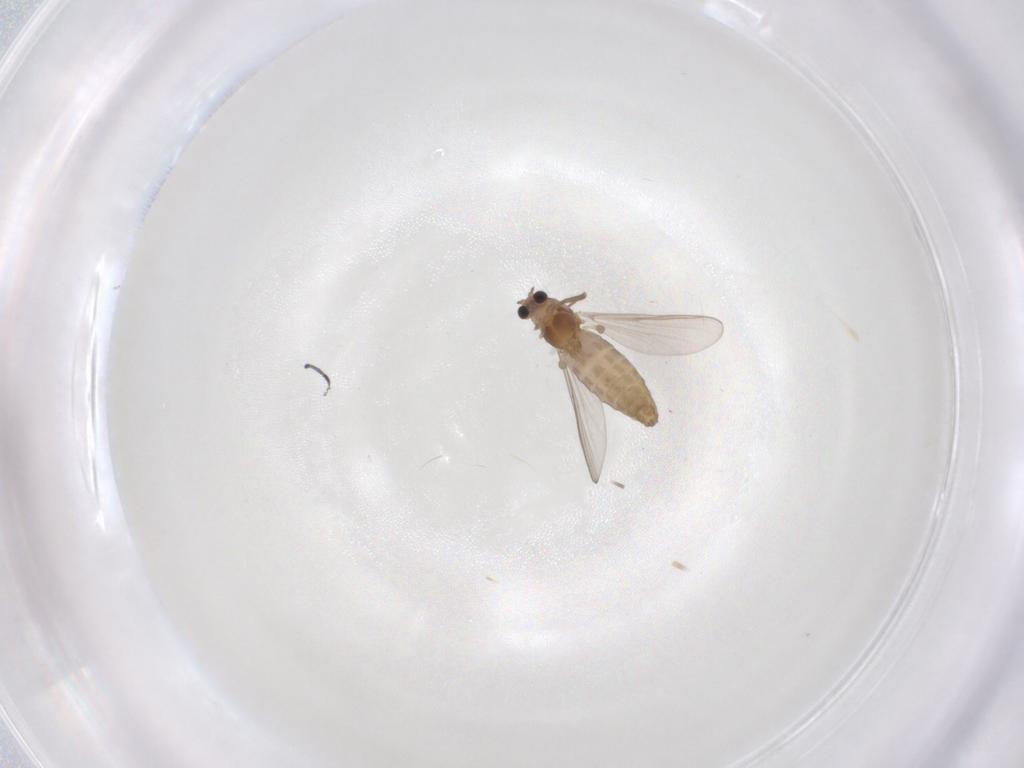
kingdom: Animalia
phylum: Arthropoda
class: Insecta
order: Diptera
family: Chironomidae
